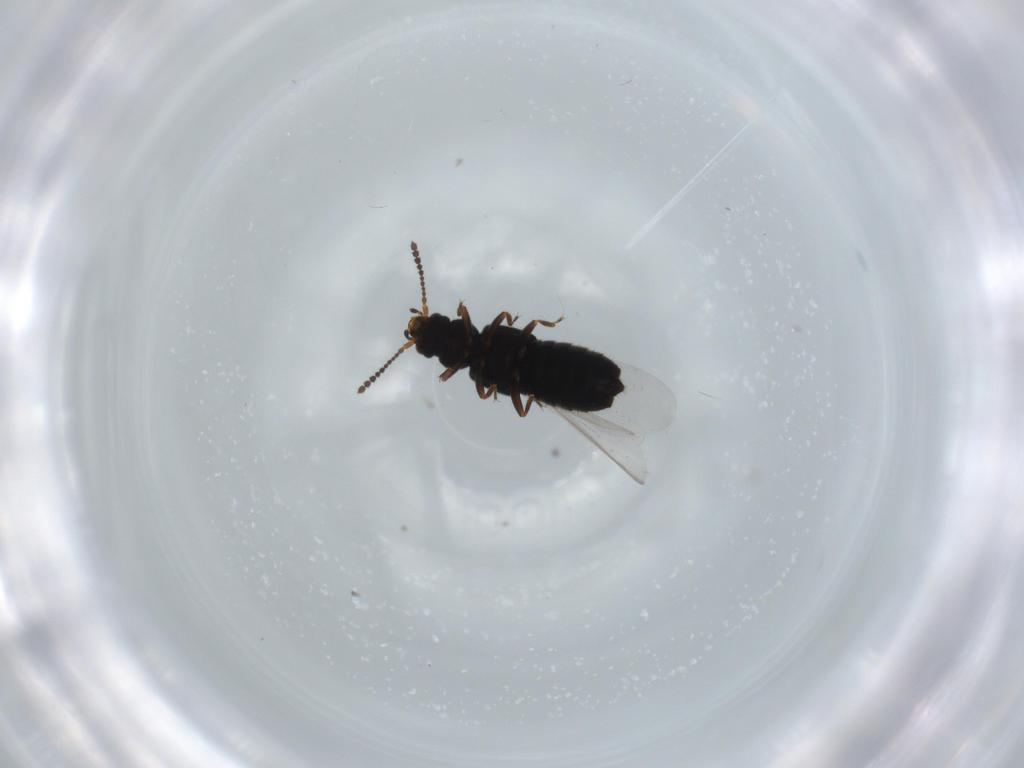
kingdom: Animalia
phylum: Arthropoda
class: Insecta
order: Coleoptera
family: Staphylinidae
